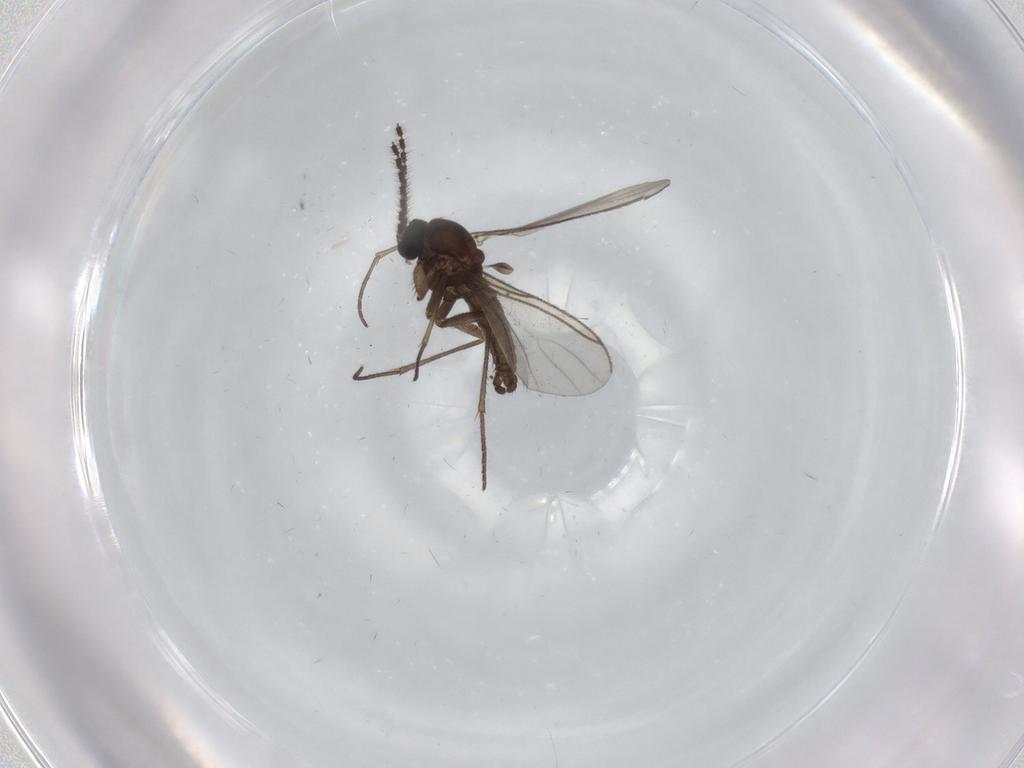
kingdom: Animalia
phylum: Arthropoda
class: Insecta
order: Diptera
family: Sciaridae
